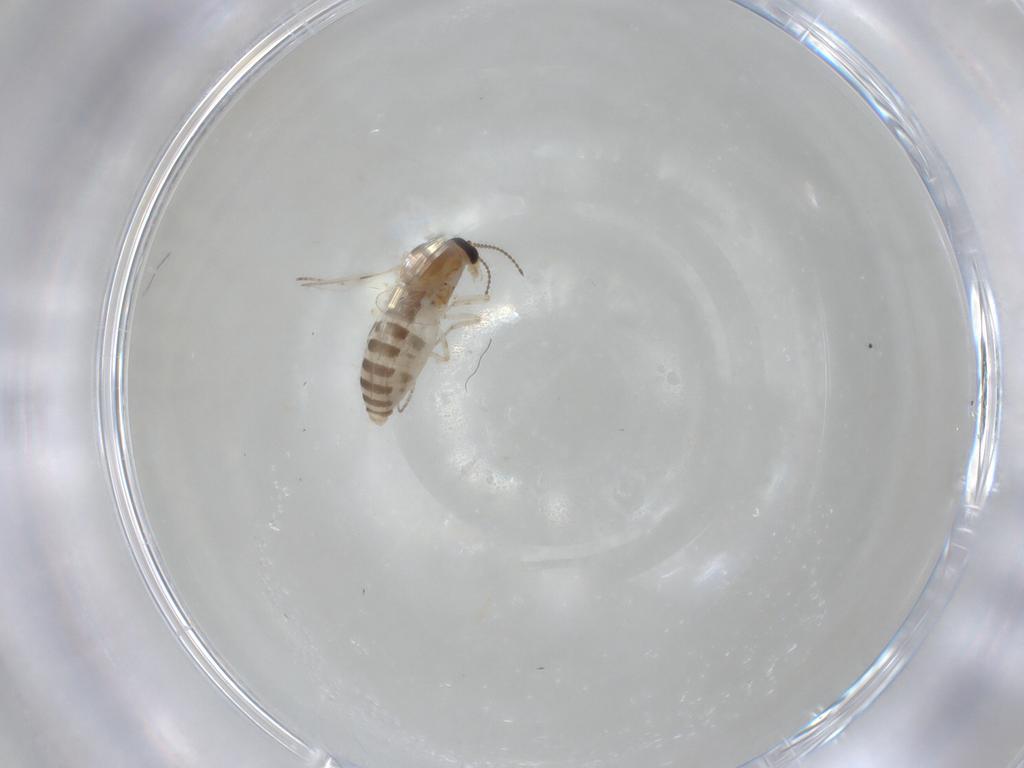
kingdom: Animalia
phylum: Arthropoda
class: Insecta
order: Diptera
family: Ceratopogonidae
